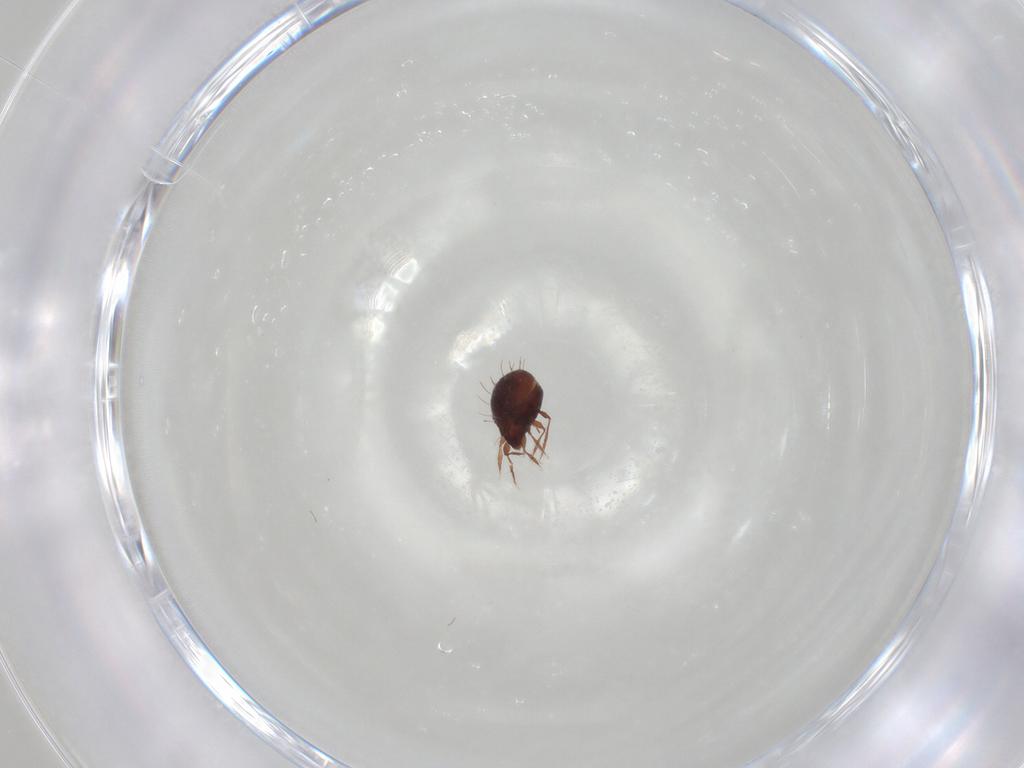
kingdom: Animalia
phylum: Arthropoda
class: Arachnida
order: Sarcoptiformes
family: Caloppiidae
